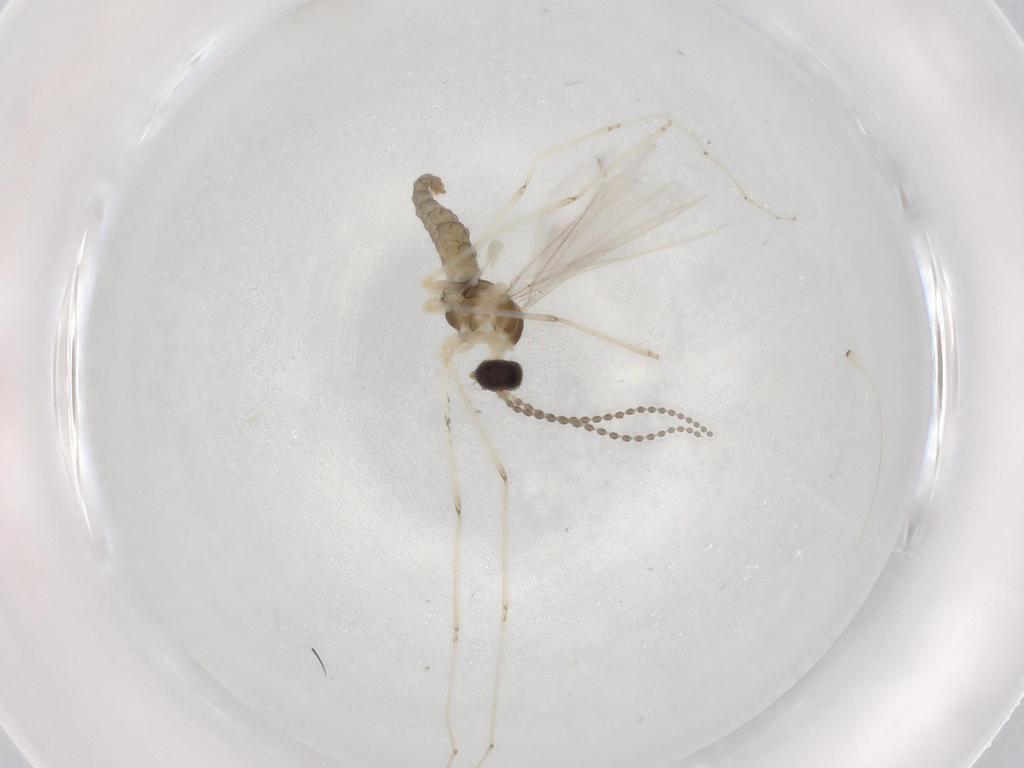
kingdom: Animalia
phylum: Arthropoda
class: Insecta
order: Diptera
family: Cecidomyiidae
